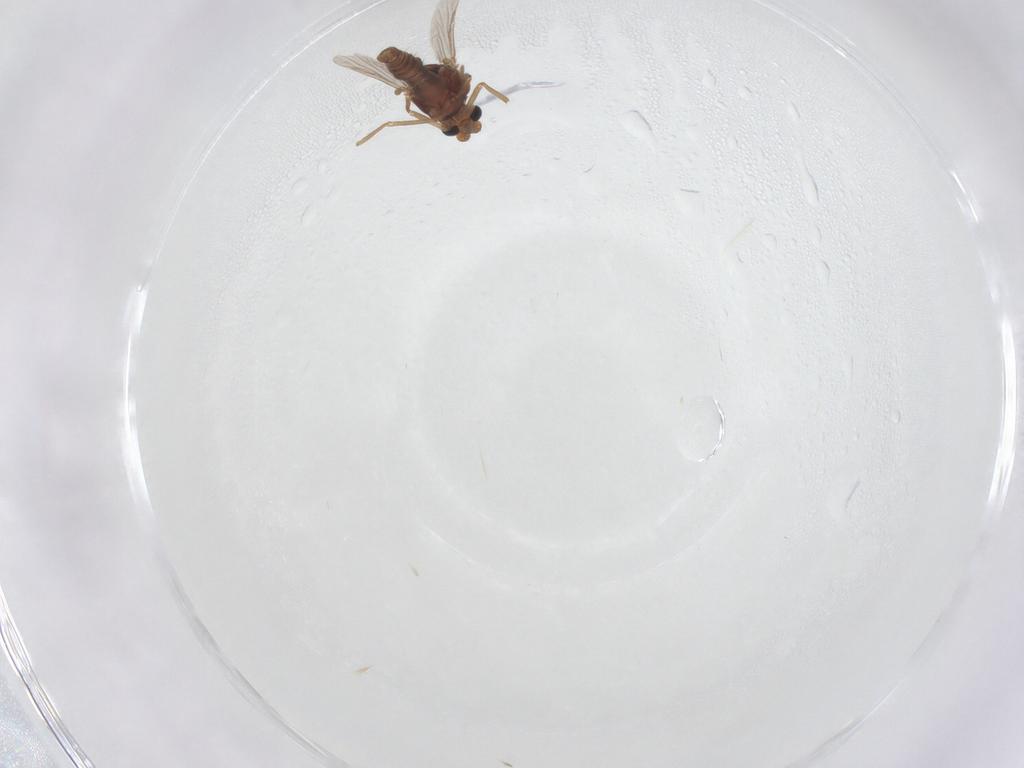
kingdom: Animalia
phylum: Arthropoda
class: Insecta
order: Diptera
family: Ceratopogonidae
